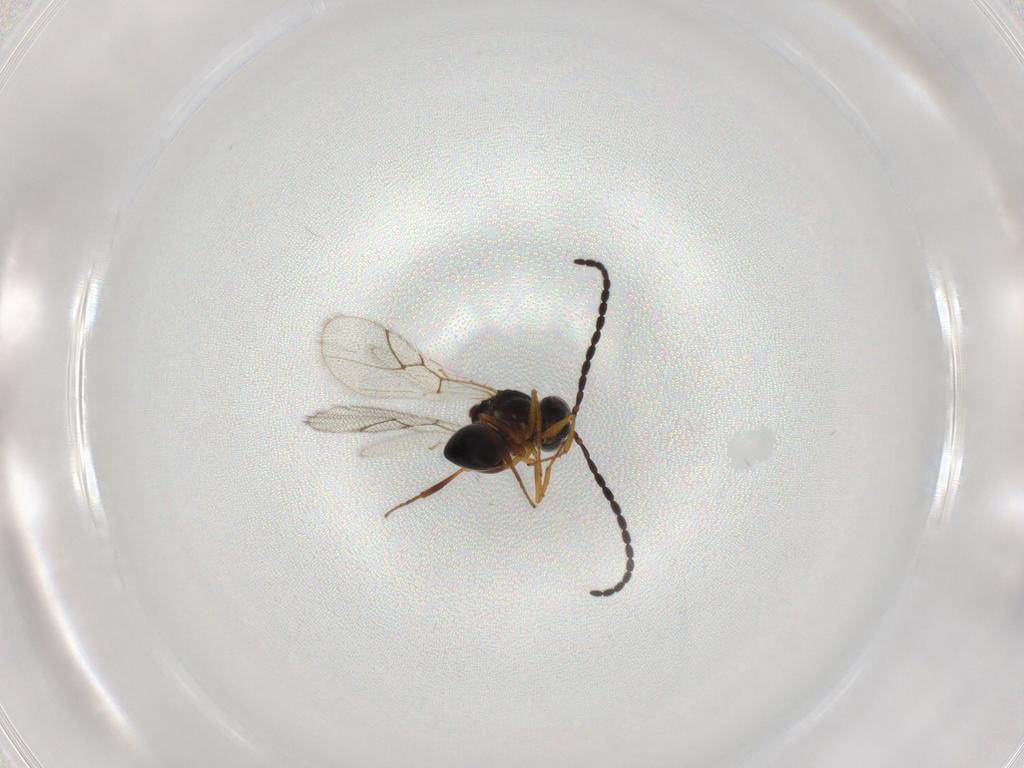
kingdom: Animalia
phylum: Arthropoda
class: Insecta
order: Hymenoptera
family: Figitidae
